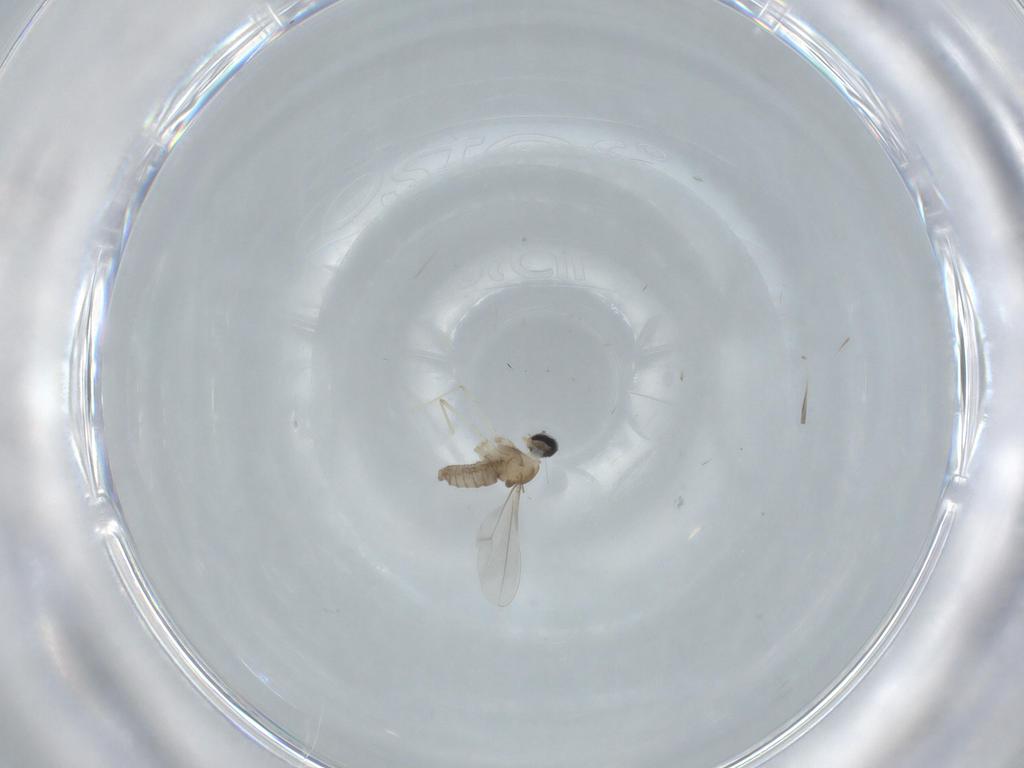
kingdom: Animalia
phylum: Arthropoda
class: Insecta
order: Diptera
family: Cecidomyiidae
